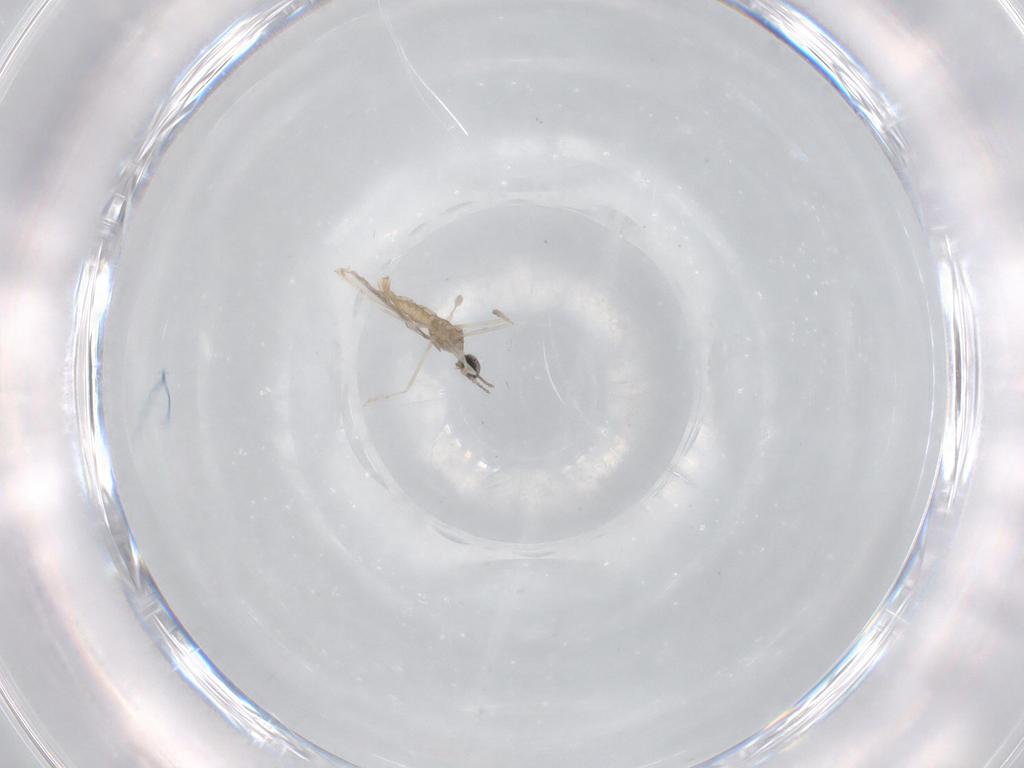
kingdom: Animalia
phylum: Arthropoda
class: Insecta
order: Diptera
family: Cecidomyiidae
